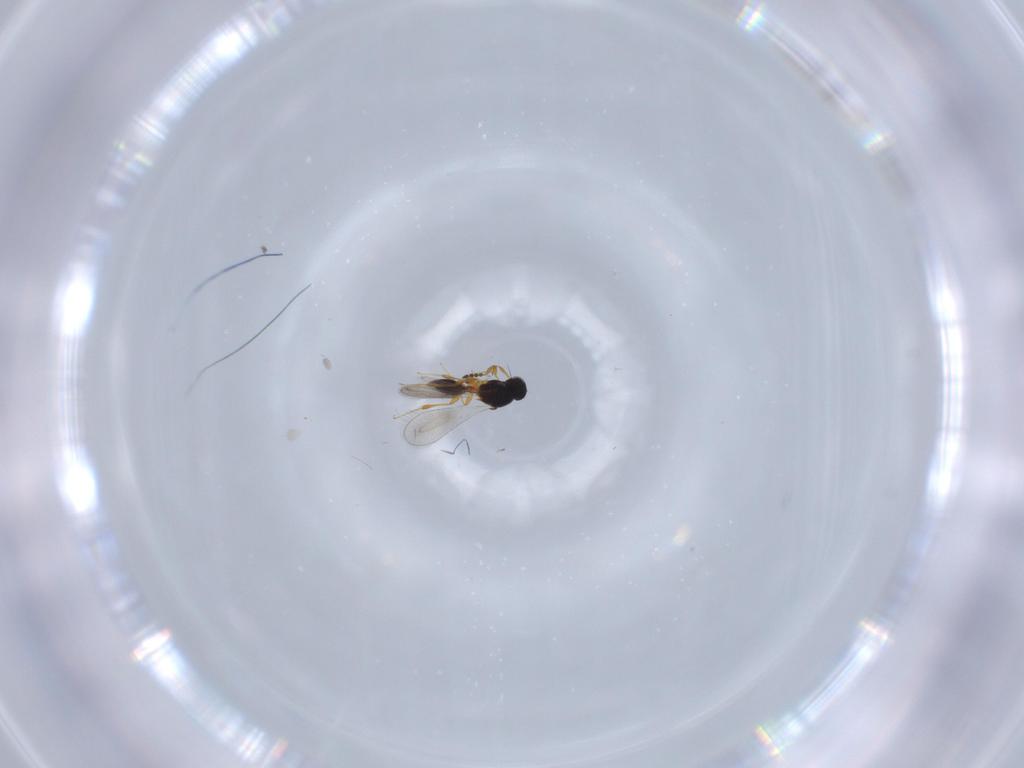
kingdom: Animalia
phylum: Arthropoda
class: Insecta
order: Hymenoptera
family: Platygastridae
